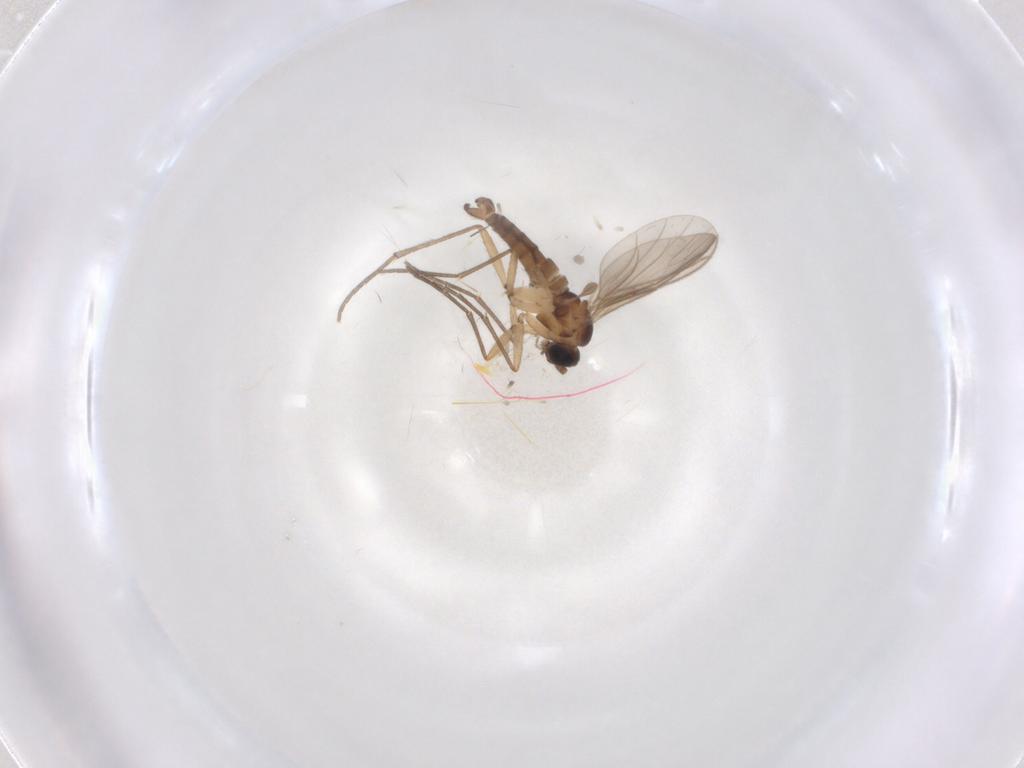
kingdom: Animalia
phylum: Arthropoda
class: Insecta
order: Diptera
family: Sciaridae
